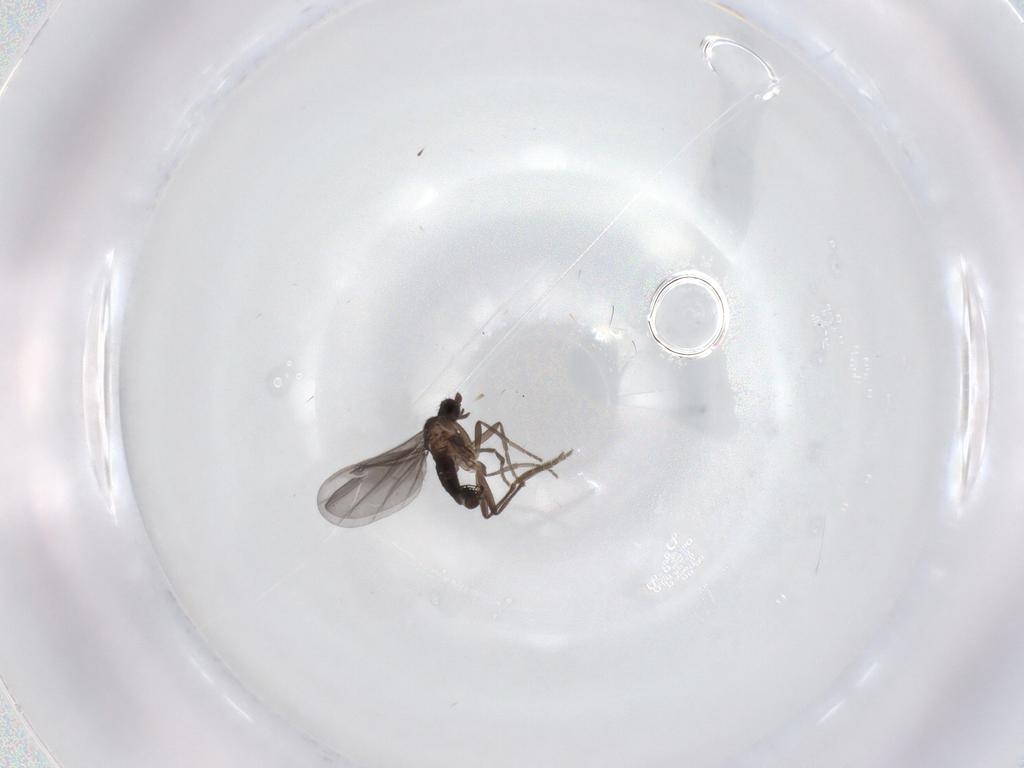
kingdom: Animalia
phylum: Arthropoda
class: Insecta
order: Diptera
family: Phoridae
